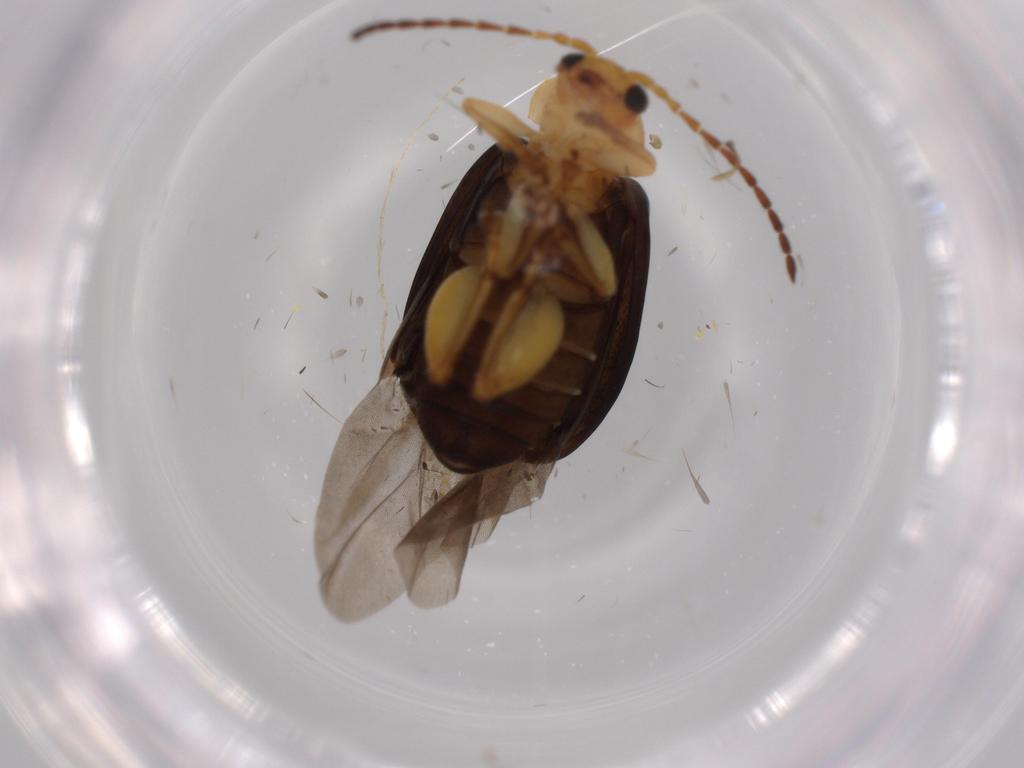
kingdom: Animalia
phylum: Arthropoda
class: Insecta
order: Coleoptera
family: Chrysomelidae
